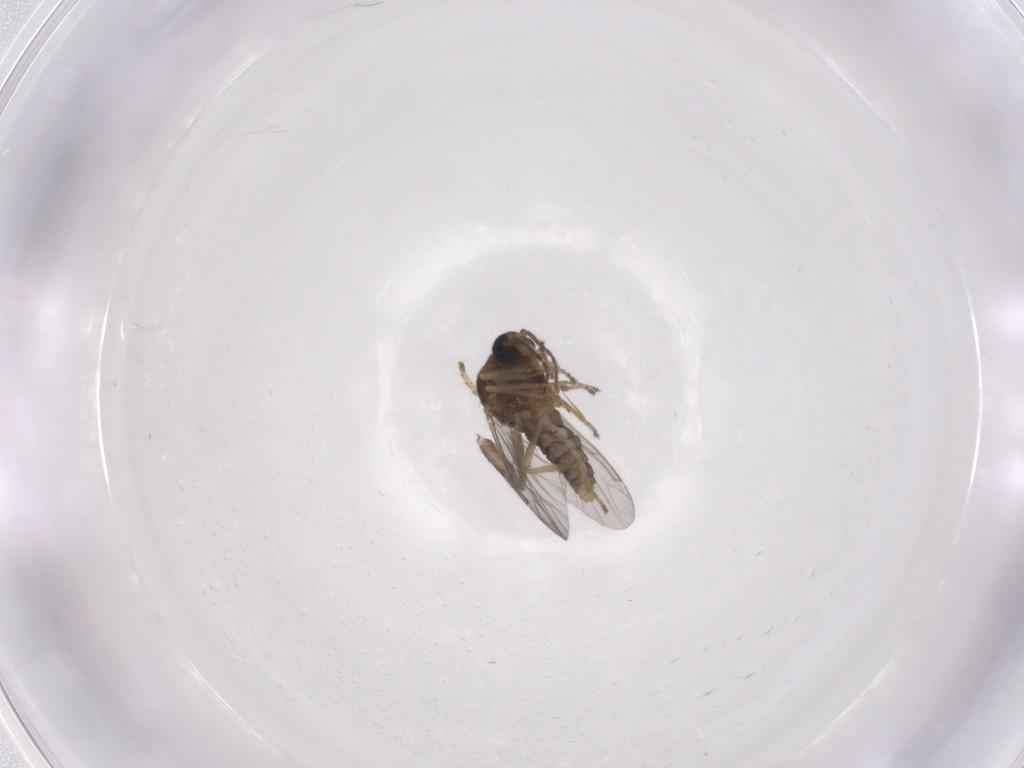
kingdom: Animalia
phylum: Arthropoda
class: Insecta
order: Diptera
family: Ceratopogonidae
